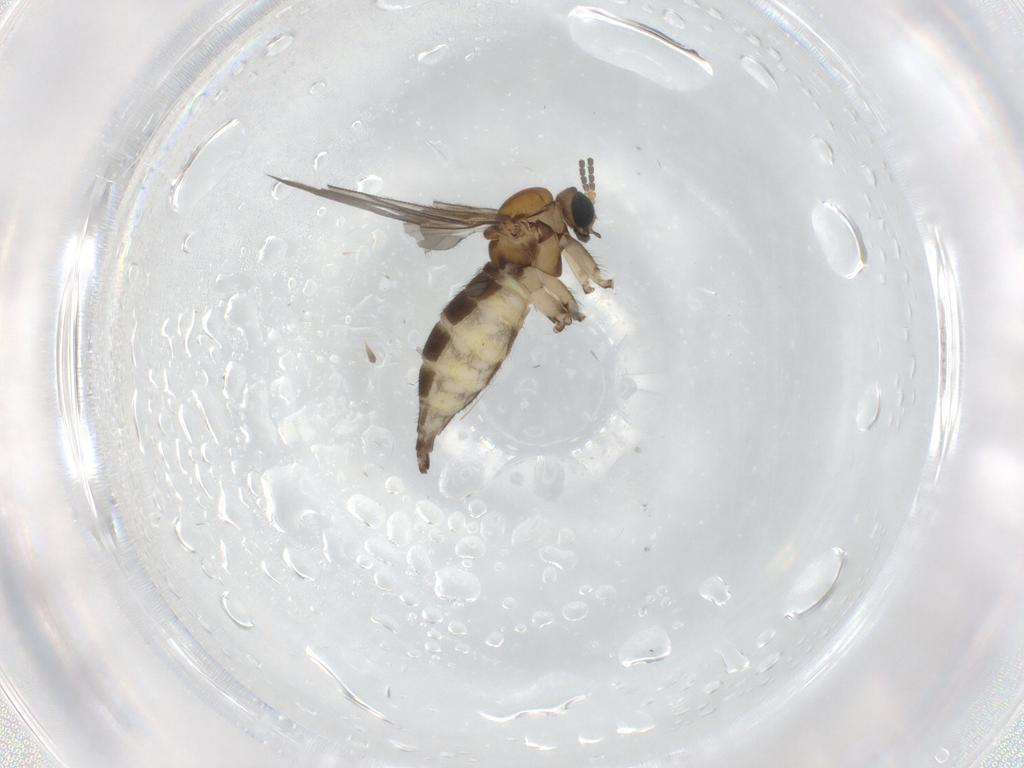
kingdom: Animalia
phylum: Arthropoda
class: Insecta
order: Diptera
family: Sciaridae
